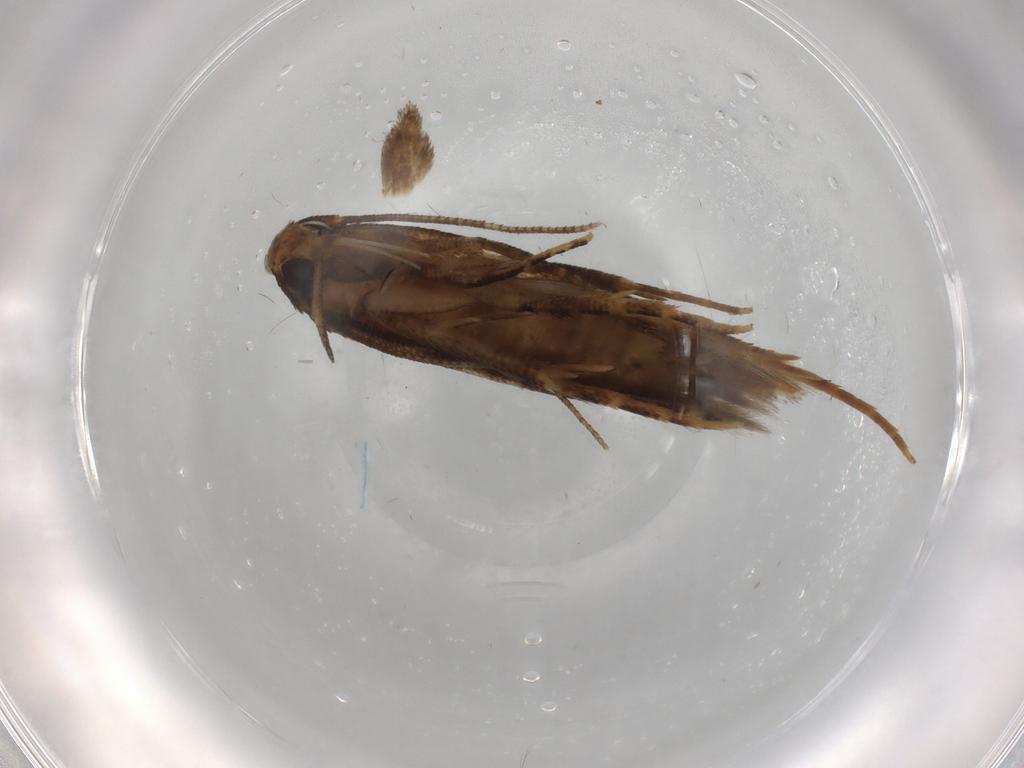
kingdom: Animalia
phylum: Arthropoda
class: Insecta
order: Lepidoptera
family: Cosmopterigidae
